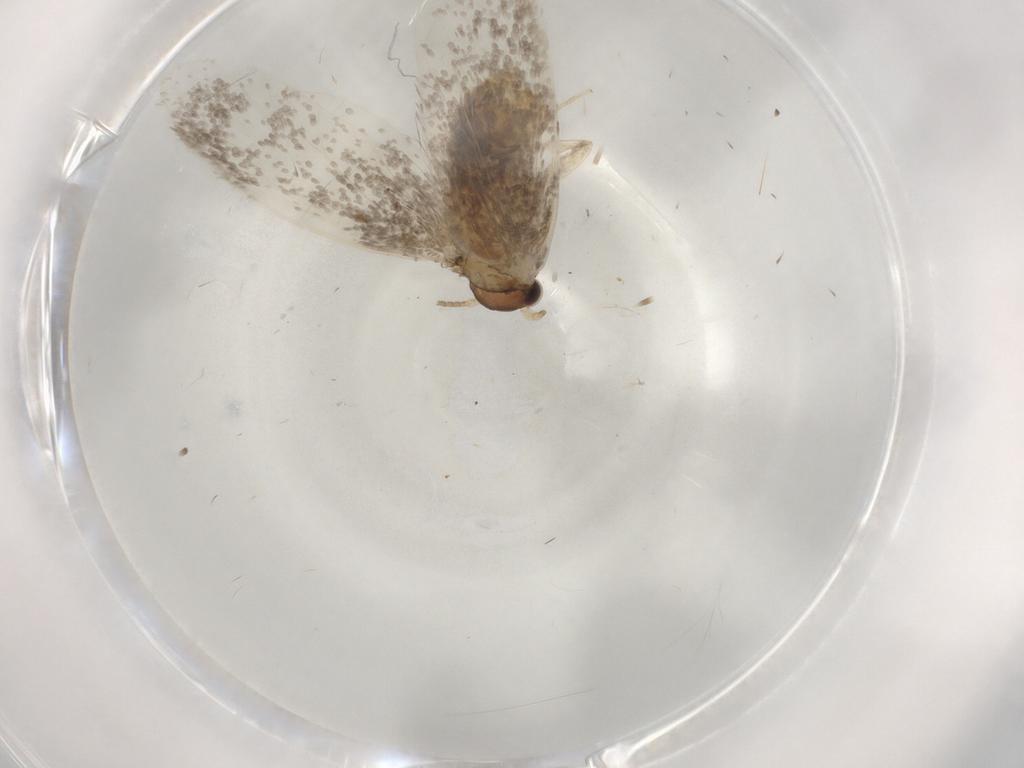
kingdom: Animalia
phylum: Arthropoda
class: Insecta
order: Lepidoptera
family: Dryadaulidae
